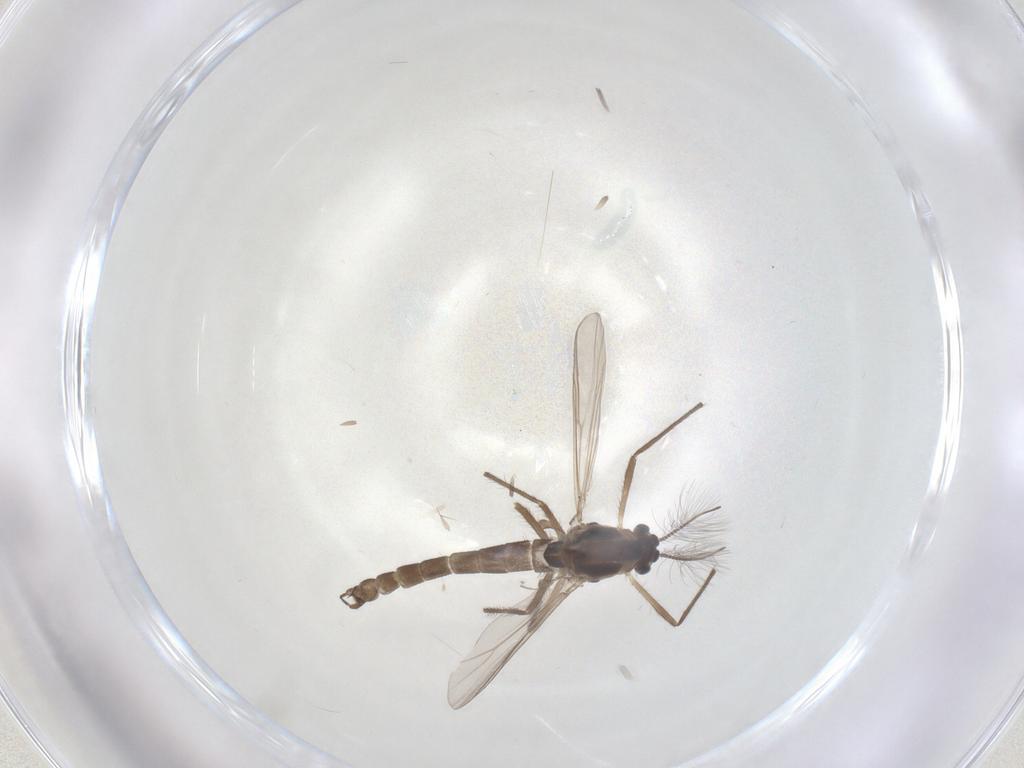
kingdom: Animalia
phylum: Arthropoda
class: Insecta
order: Diptera
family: Chironomidae
